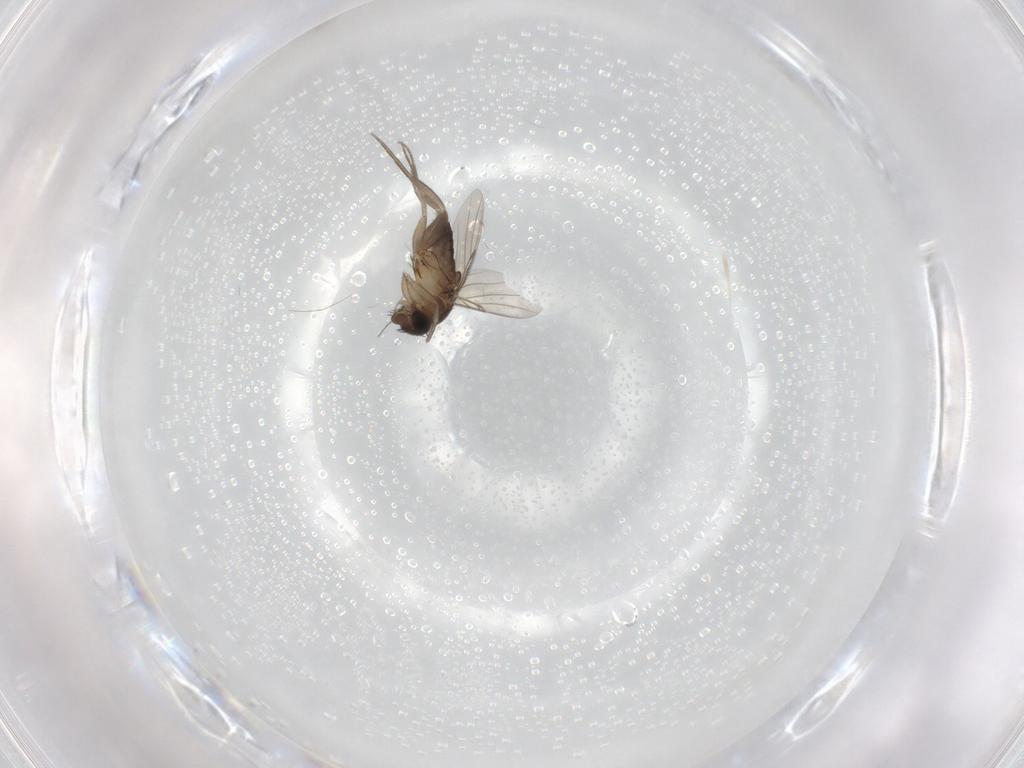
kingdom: Animalia
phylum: Arthropoda
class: Insecta
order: Diptera
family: Phoridae
